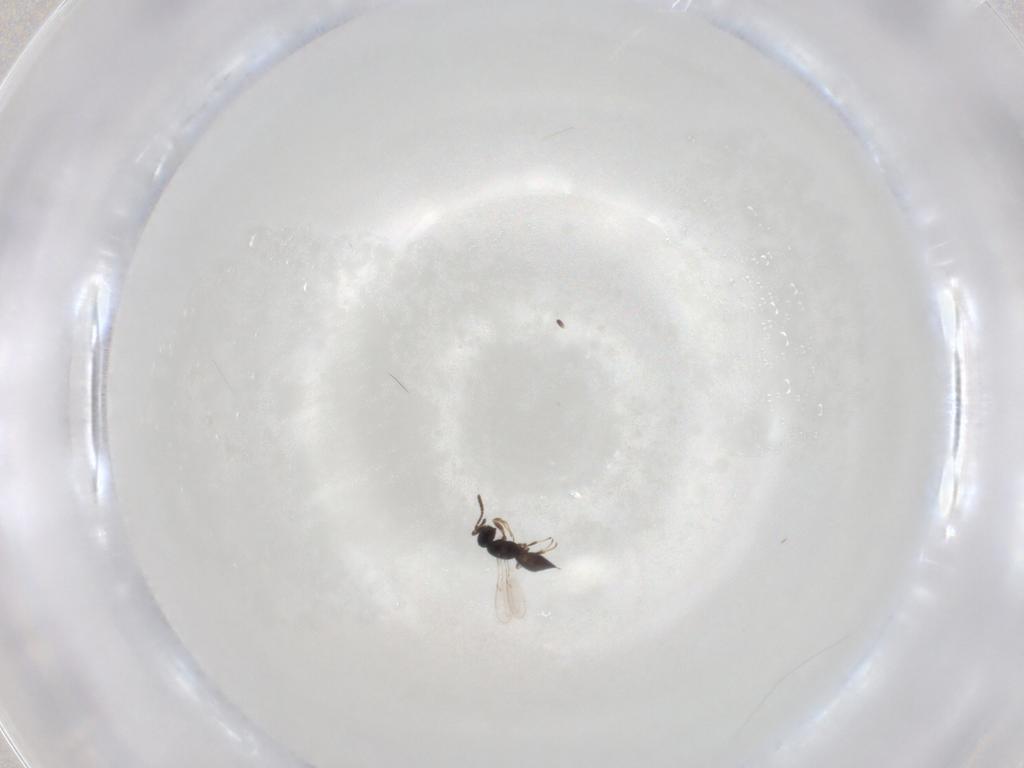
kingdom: Animalia
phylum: Arthropoda
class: Insecta
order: Hymenoptera
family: Scelionidae
